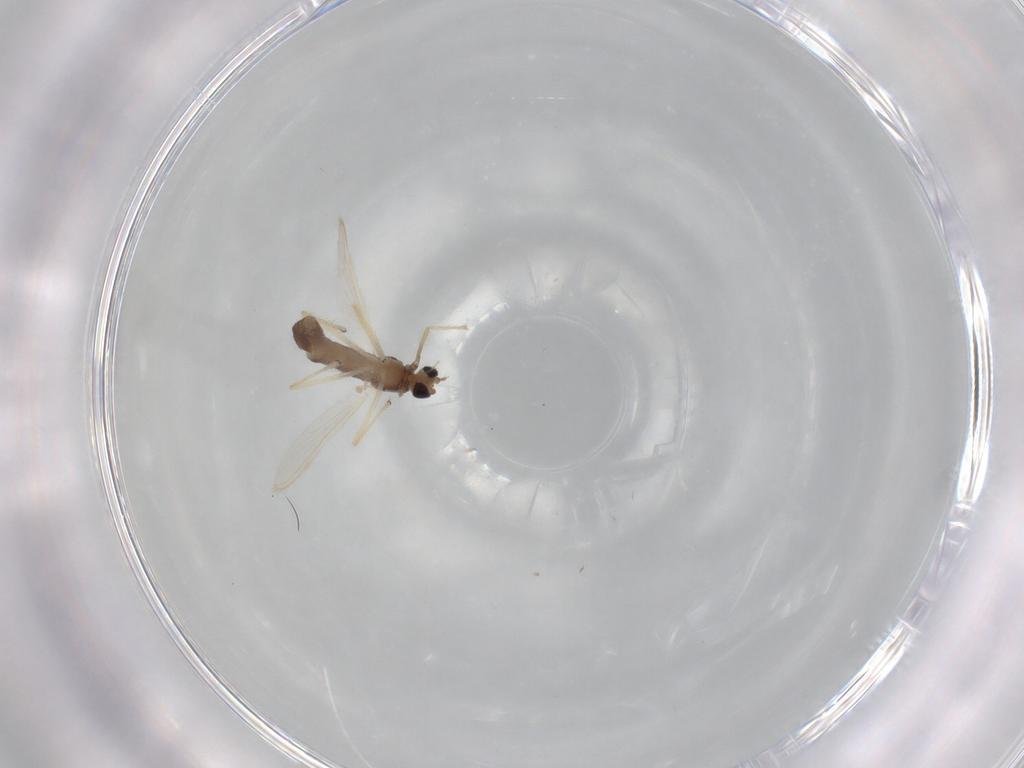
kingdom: Animalia
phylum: Arthropoda
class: Insecta
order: Diptera
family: Chironomidae
